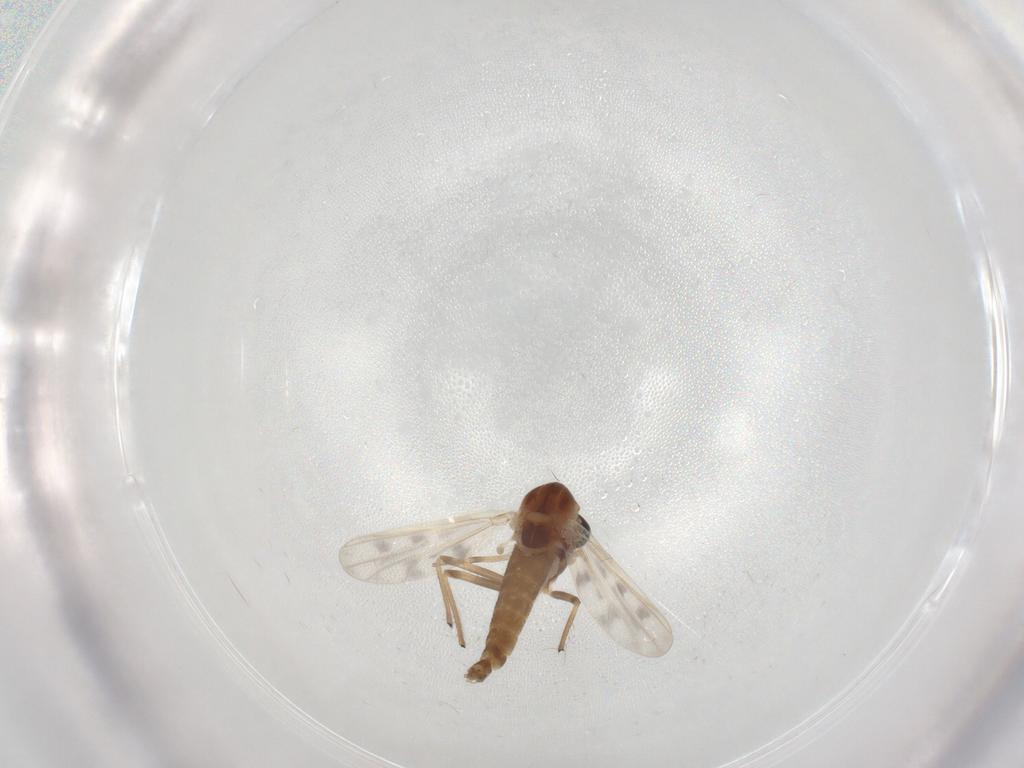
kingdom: Animalia
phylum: Arthropoda
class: Insecta
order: Diptera
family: Chironomidae
